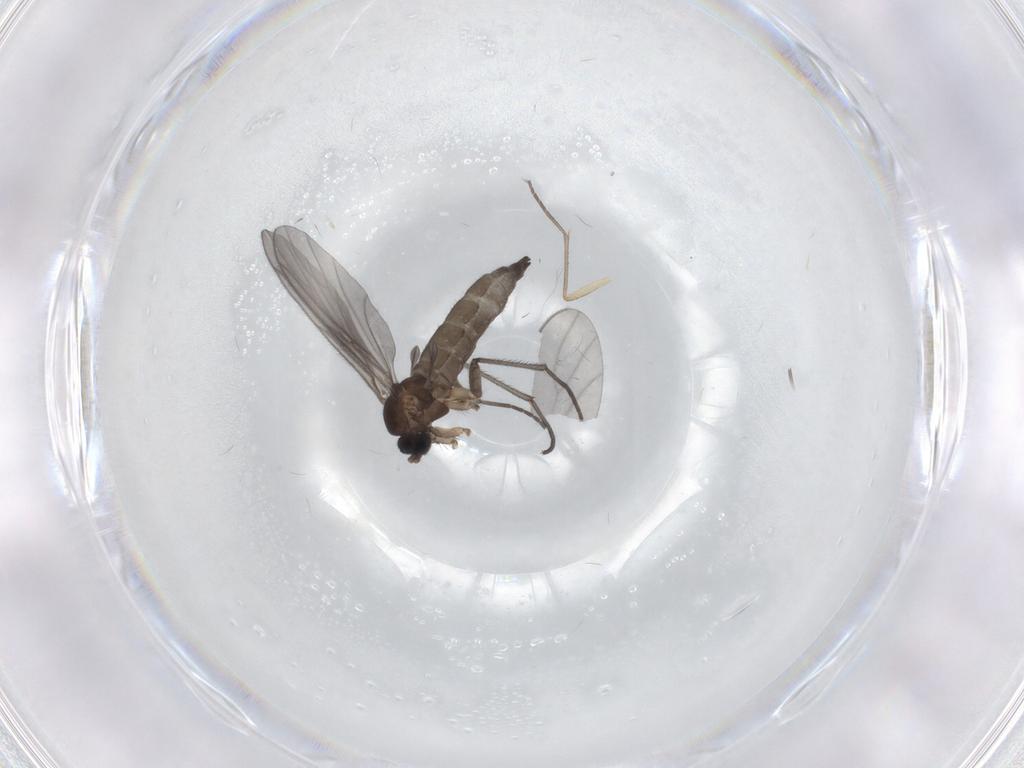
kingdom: Animalia
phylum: Arthropoda
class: Insecta
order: Diptera
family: Sciaridae
